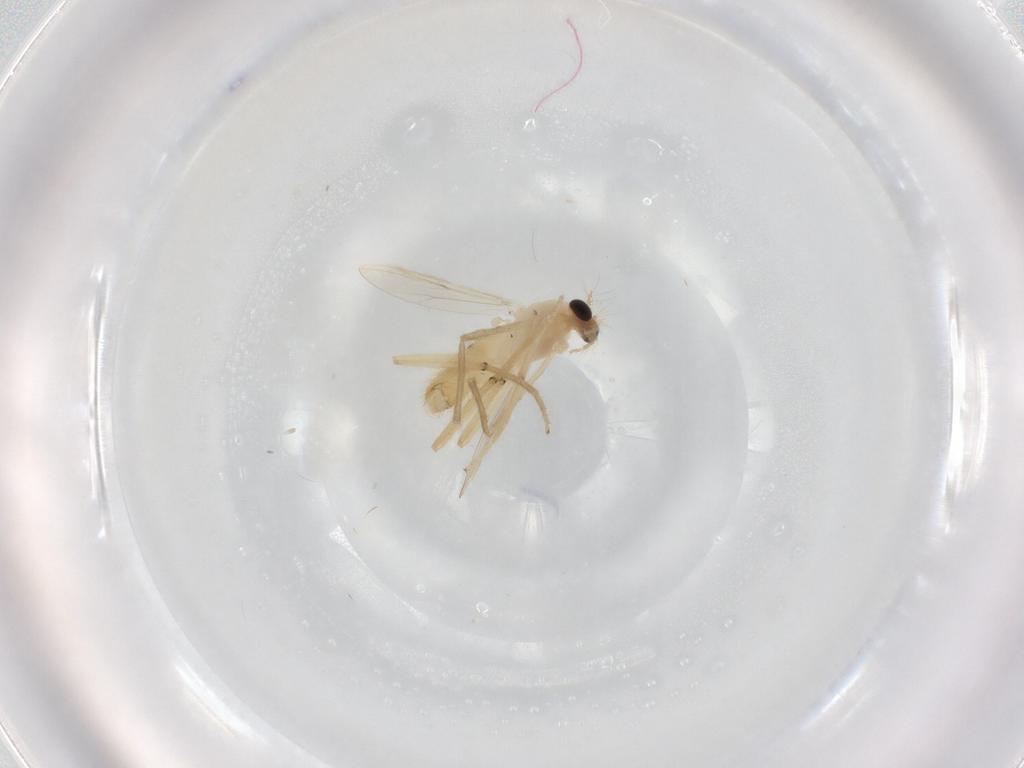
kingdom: Animalia
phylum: Arthropoda
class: Insecta
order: Diptera
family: Chironomidae
